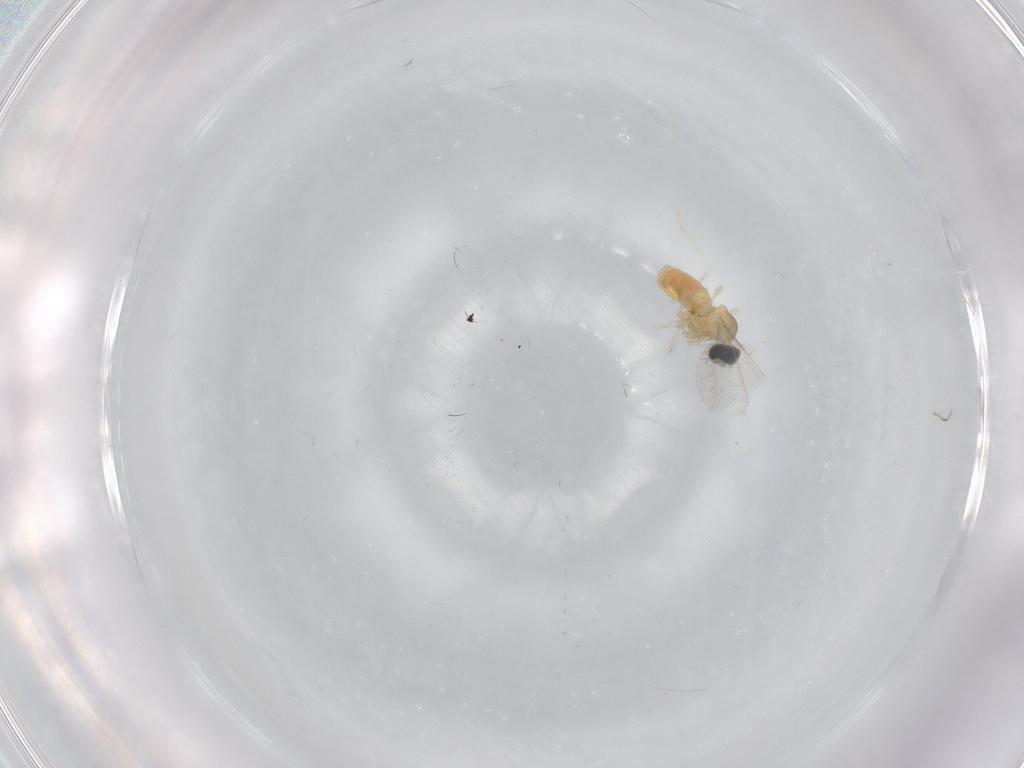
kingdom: Animalia
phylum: Arthropoda
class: Insecta
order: Diptera
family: Cecidomyiidae
